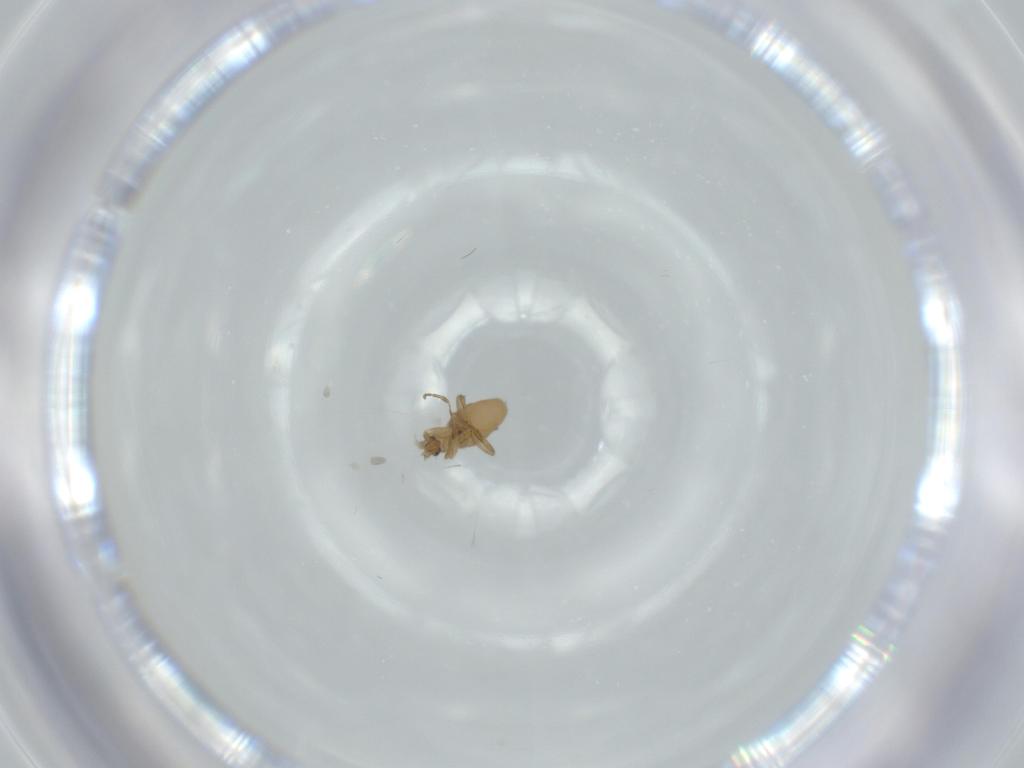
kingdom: Animalia
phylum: Arthropoda
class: Insecta
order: Diptera
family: Phoridae
